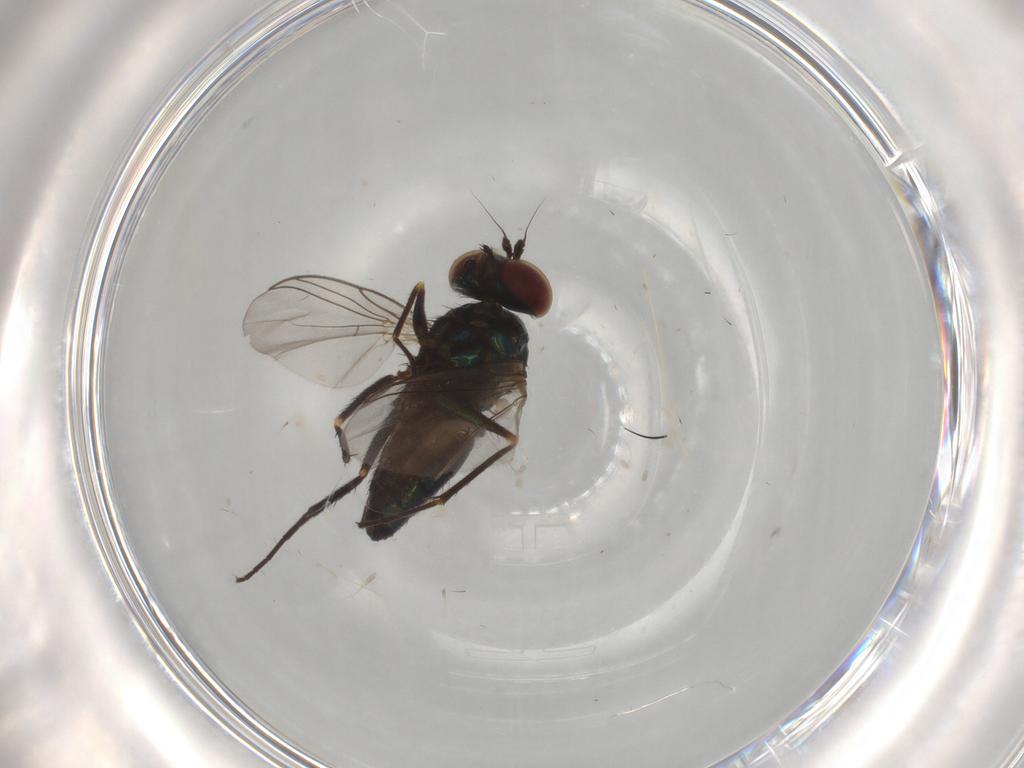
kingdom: Animalia
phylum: Arthropoda
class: Insecta
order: Diptera
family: Dolichopodidae
